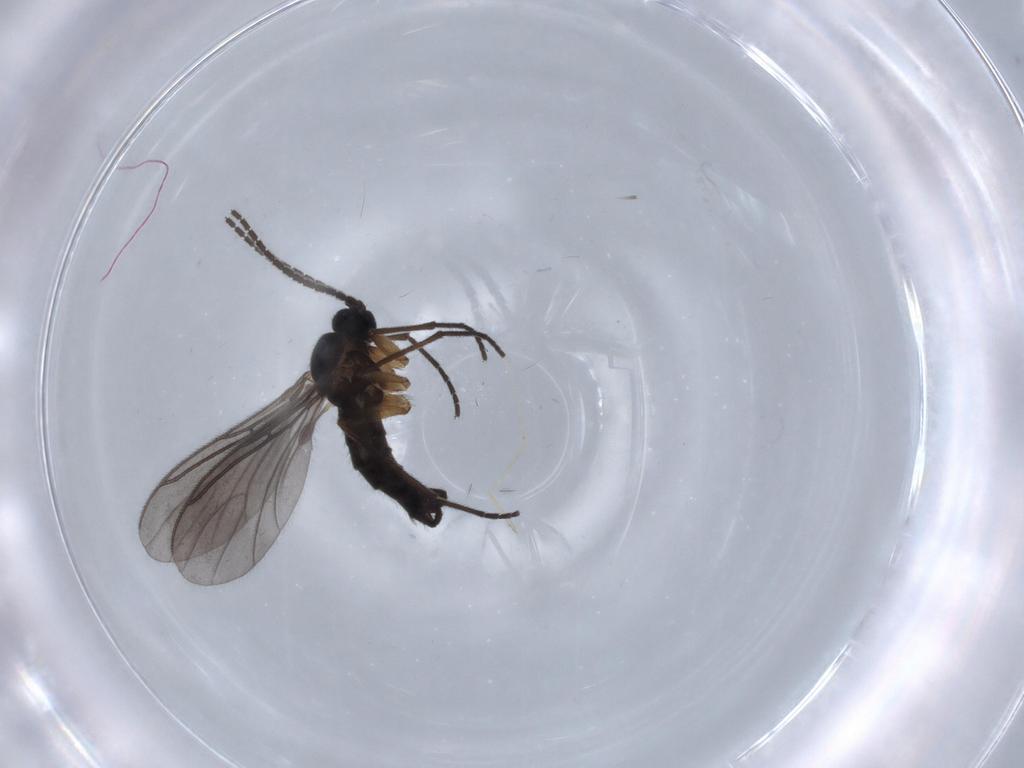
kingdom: Animalia
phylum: Arthropoda
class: Insecta
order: Diptera
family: Sciaridae
